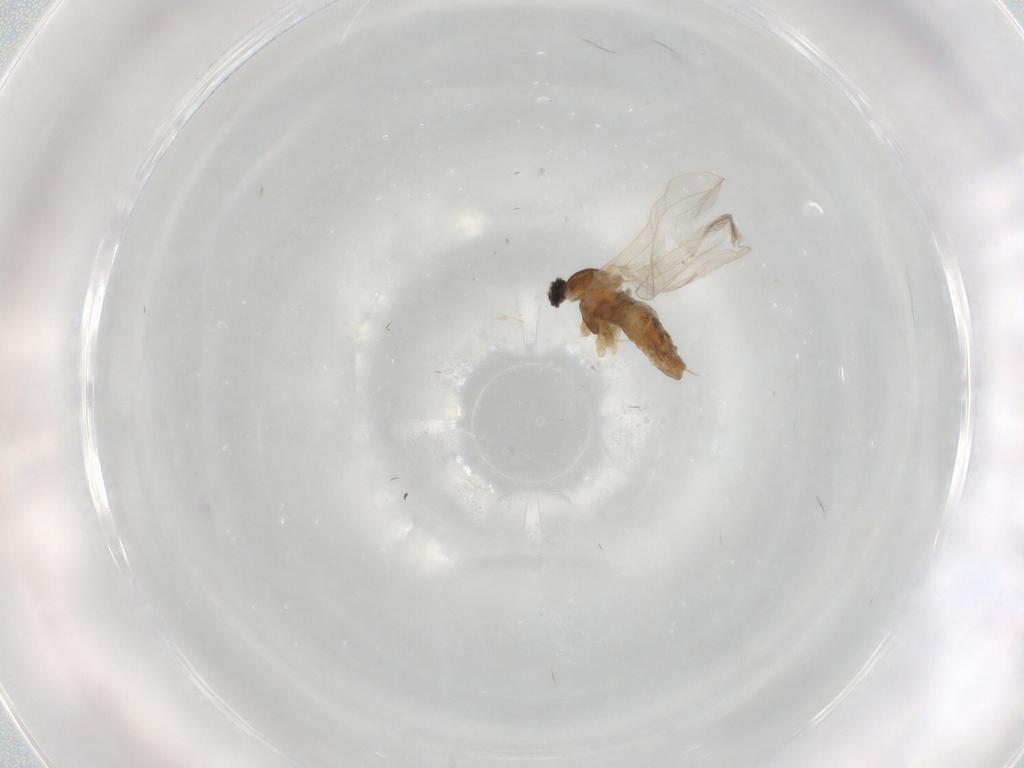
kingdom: Animalia
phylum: Arthropoda
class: Insecta
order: Diptera
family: Cecidomyiidae
